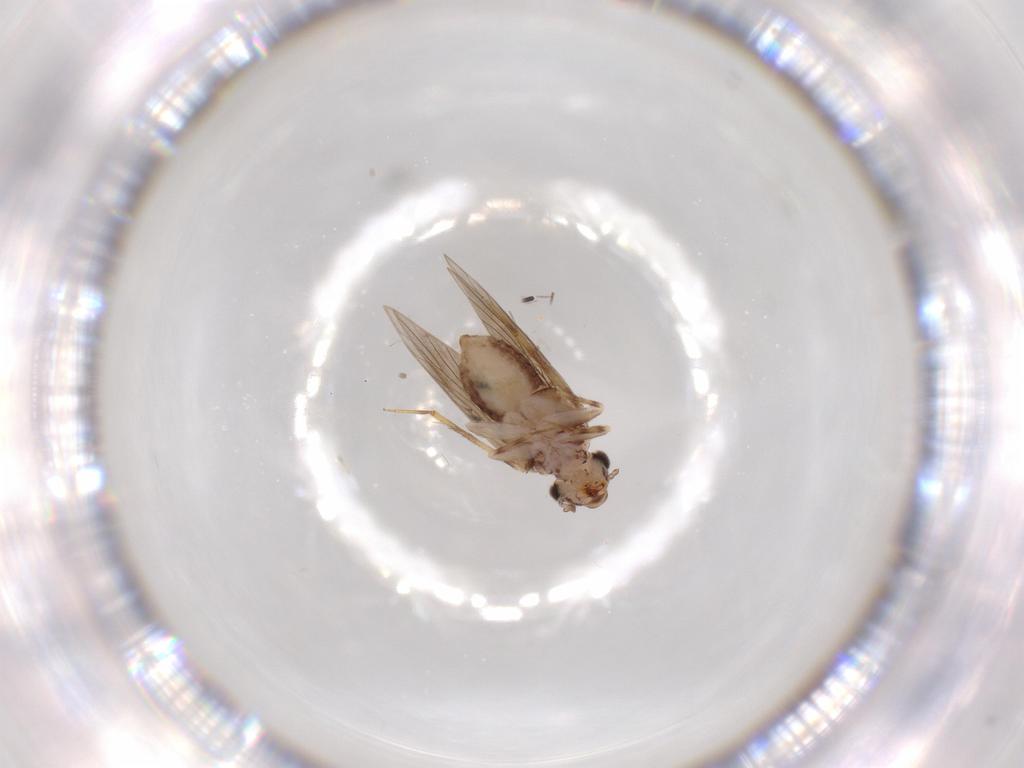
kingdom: Animalia
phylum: Arthropoda
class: Insecta
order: Psocodea
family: Lepidopsocidae
